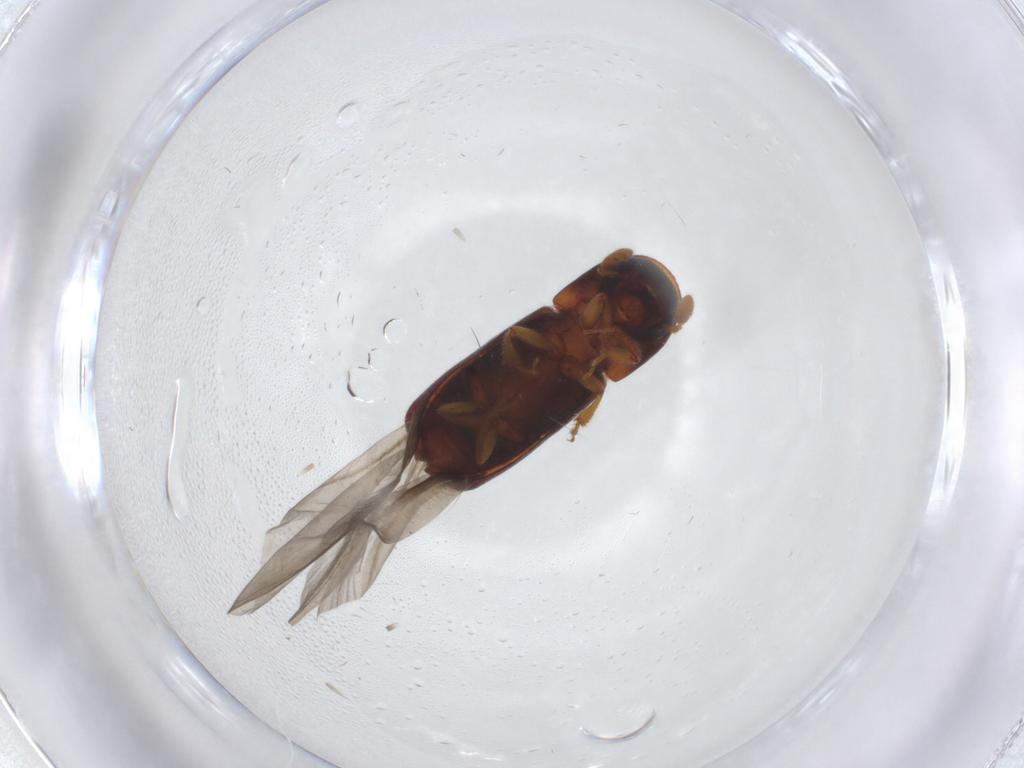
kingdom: Animalia
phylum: Arthropoda
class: Insecta
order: Coleoptera
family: Curculionidae
